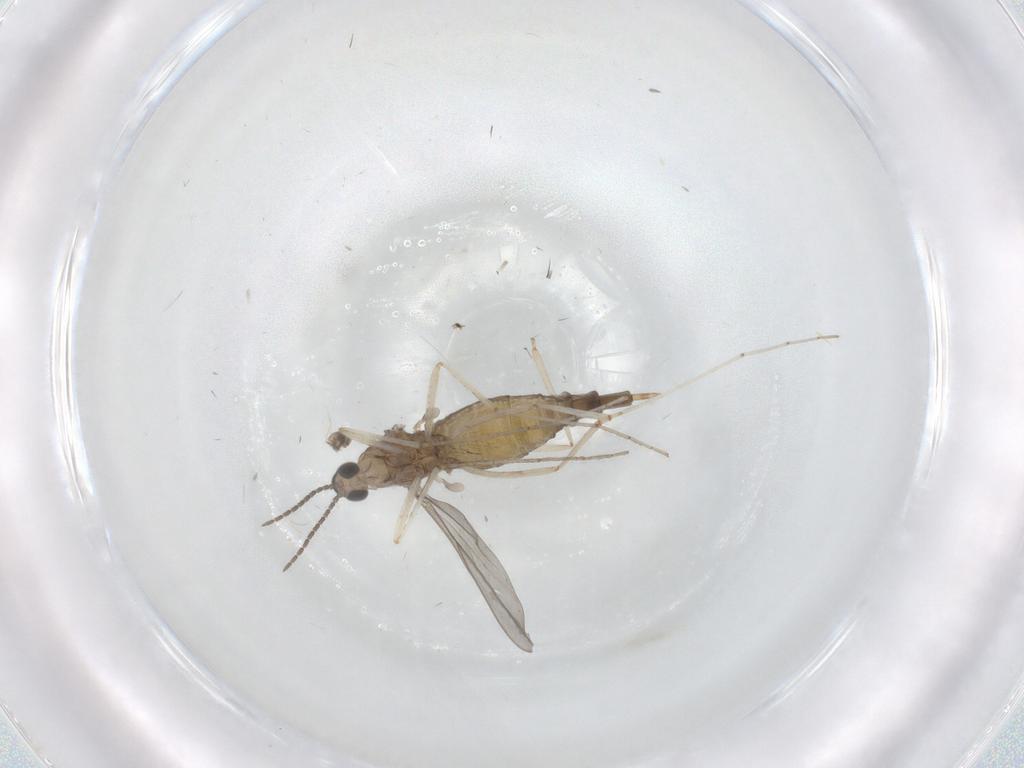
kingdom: Animalia
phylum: Arthropoda
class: Insecta
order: Diptera
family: Cecidomyiidae
